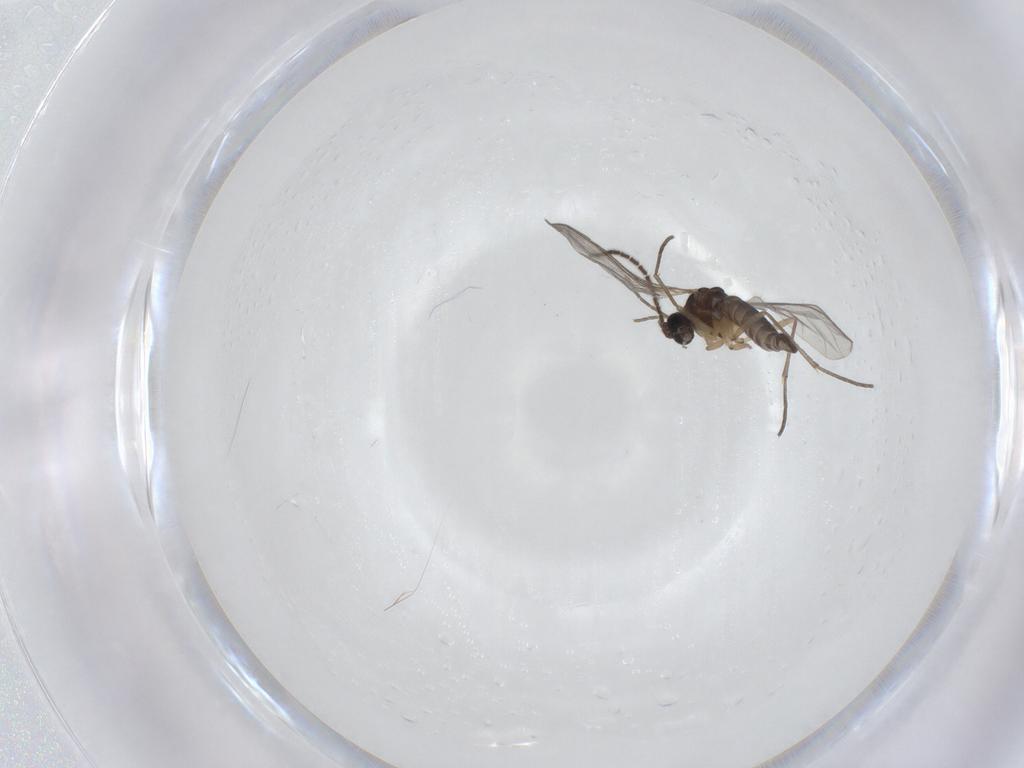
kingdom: Animalia
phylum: Arthropoda
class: Insecta
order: Diptera
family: Sciaridae
